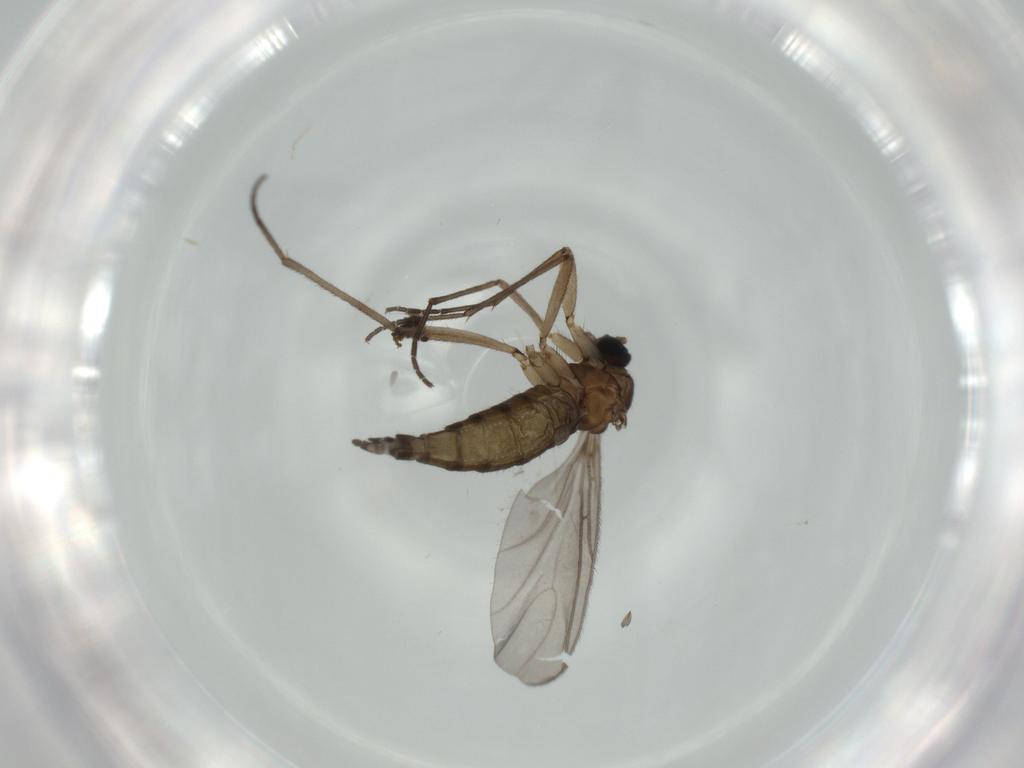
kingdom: Animalia
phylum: Arthropoda
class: Insecta
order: Diptera
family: Sciaridae
